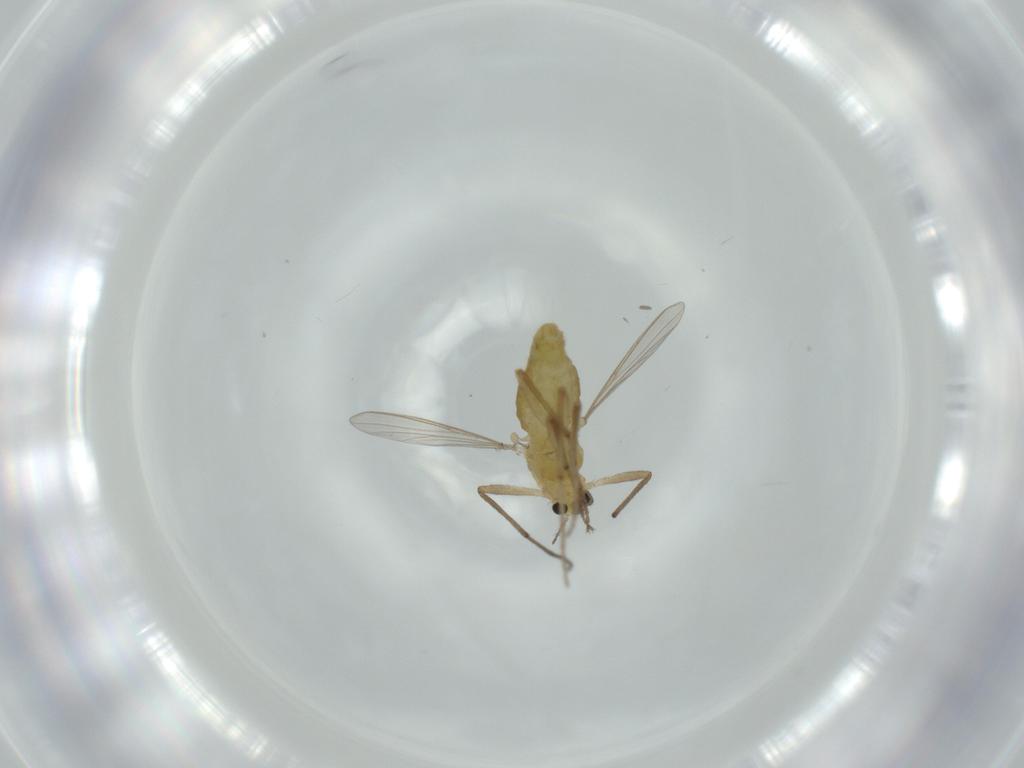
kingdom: Animalia
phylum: Arthropoda
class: Insecta
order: Diptera
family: Chironomidae
